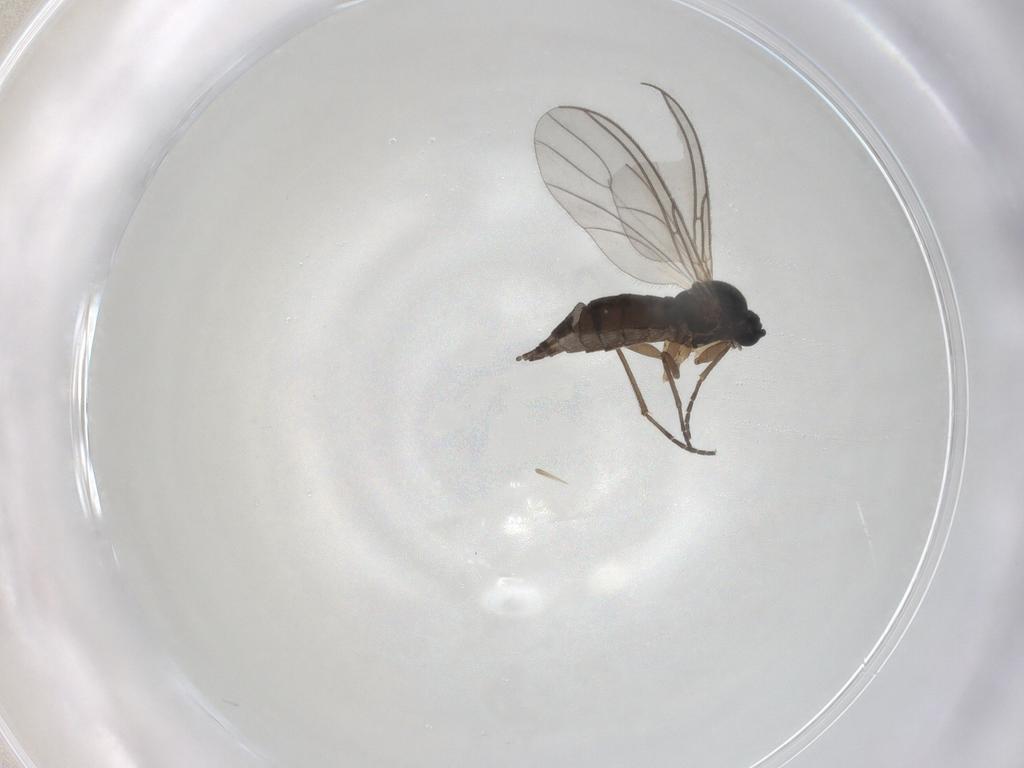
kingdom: Animalia
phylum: Arthropoda
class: Insecta
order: Diptera
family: Sciaridae
